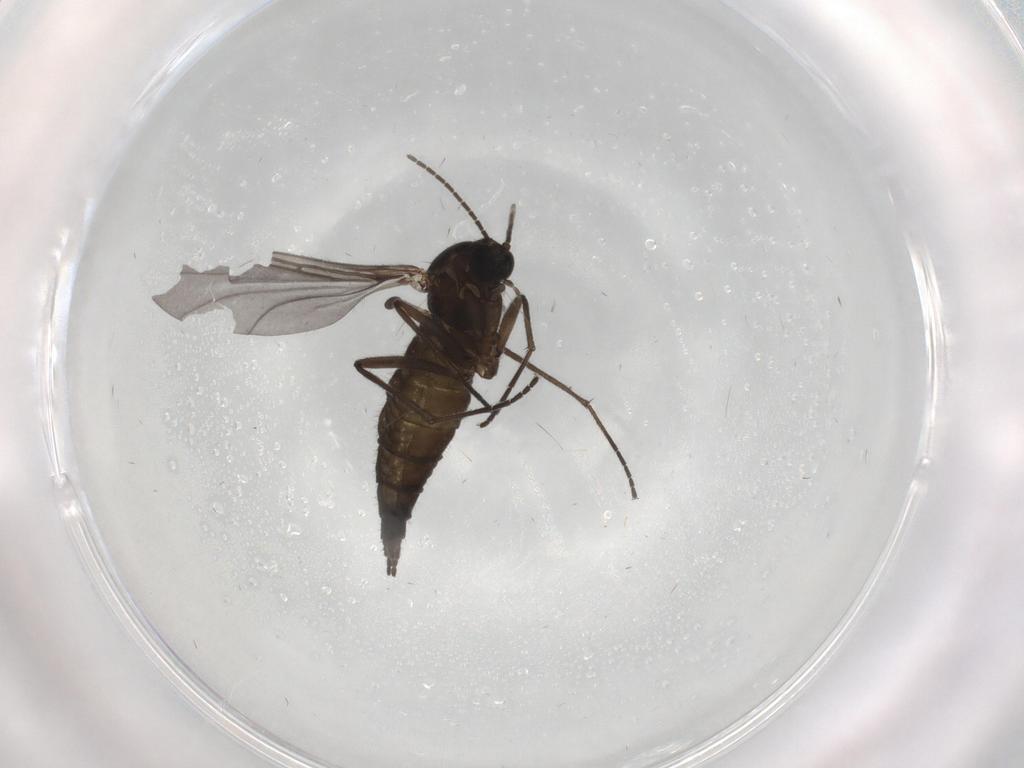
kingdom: Animalia
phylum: Arthropoda
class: Insecta
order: Diptera
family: Sciaridae
